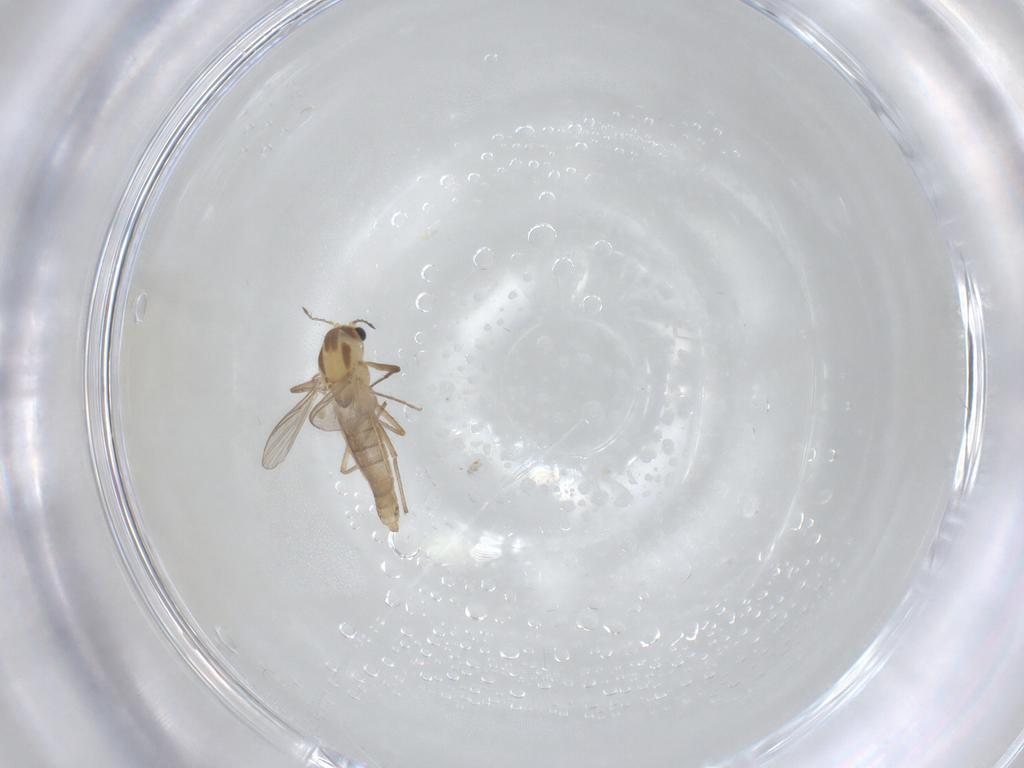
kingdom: Animalia
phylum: Arthropoda
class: Insecta
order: Diptera
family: Chironomidae
